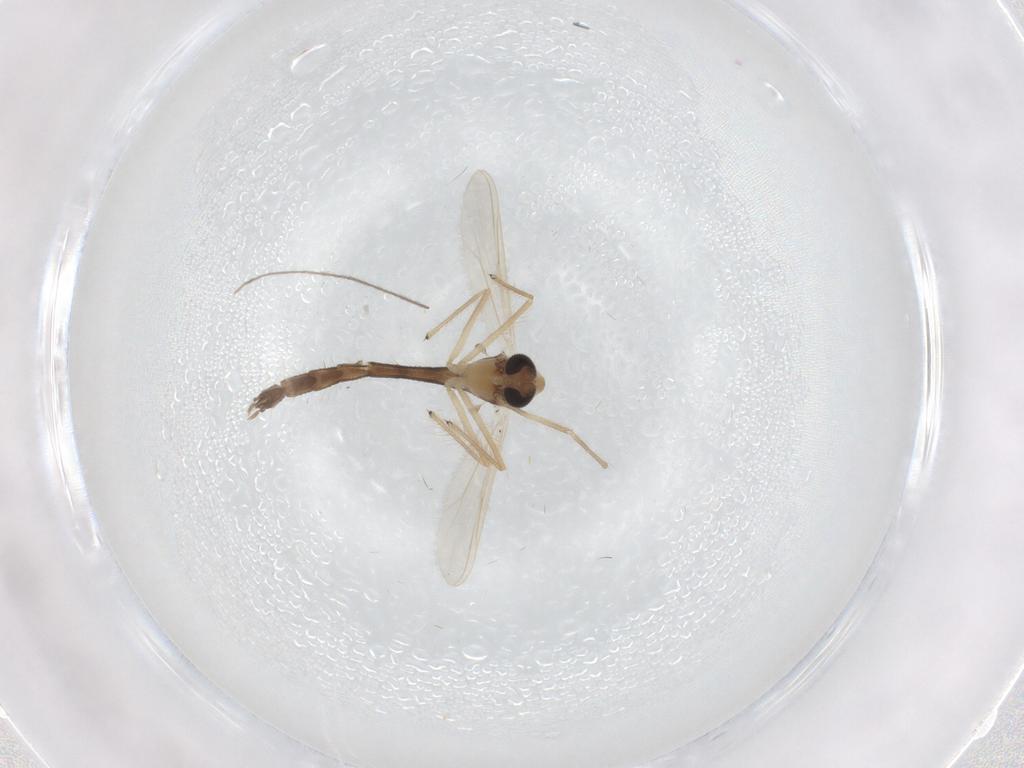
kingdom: Animalia
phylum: Arthropoda
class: Insecta
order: Diptera
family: Chironomidae
